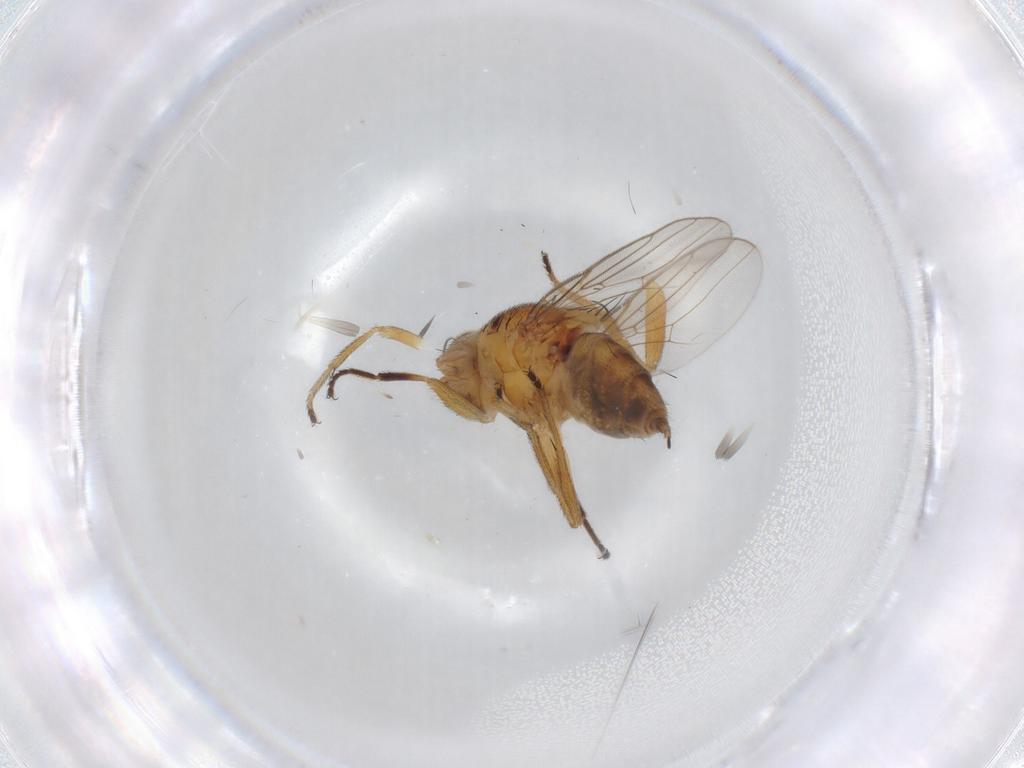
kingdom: Animalia
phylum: Arthropoda
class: Insecta
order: Diptera
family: Chloropidae
